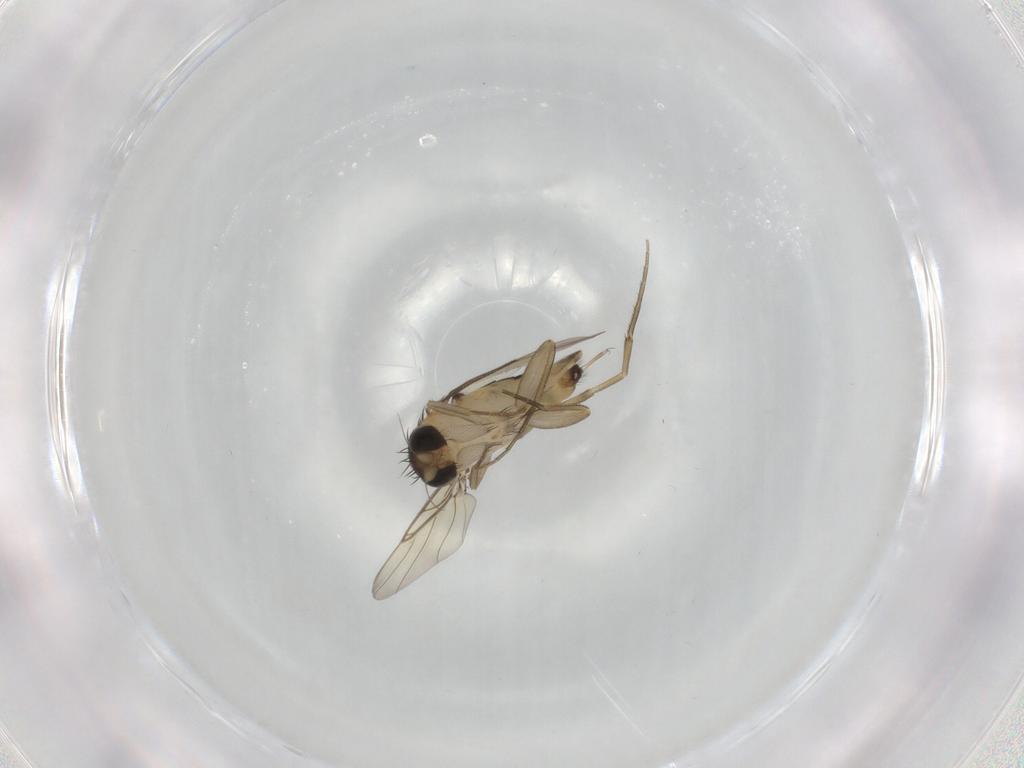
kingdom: Animalia
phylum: Arthropoda
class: Insecta
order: Diptera
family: Phoridae
